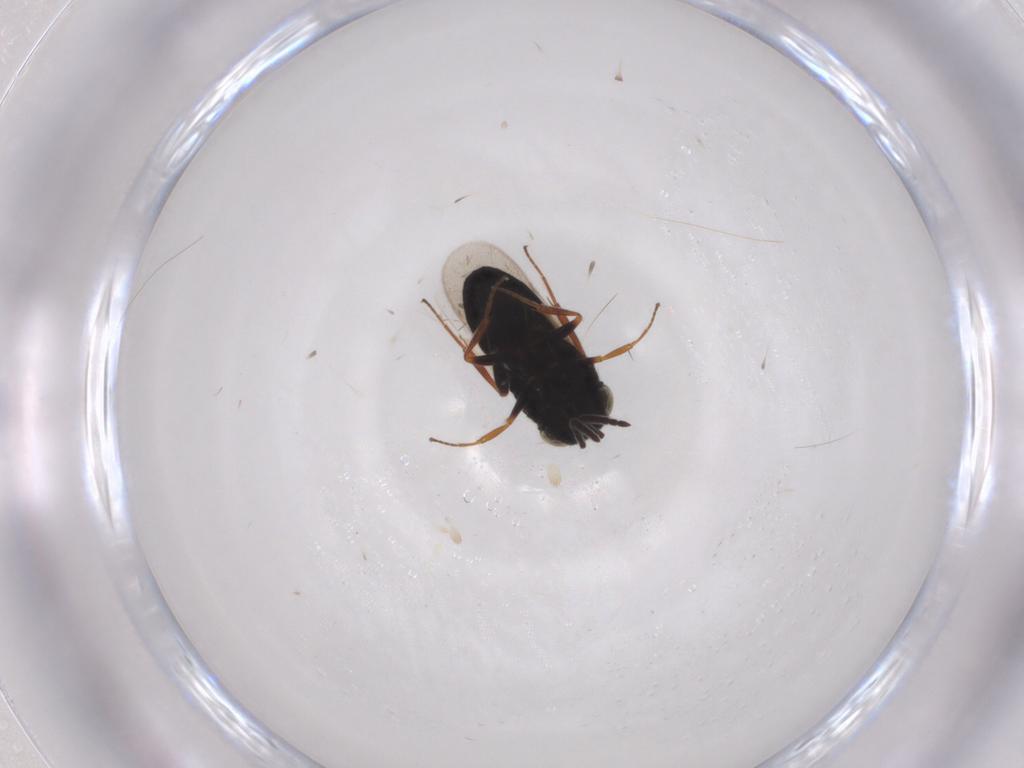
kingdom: Animalia
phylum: Arthropoda
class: Insecta
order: Hymenoptera
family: Scelionidae
